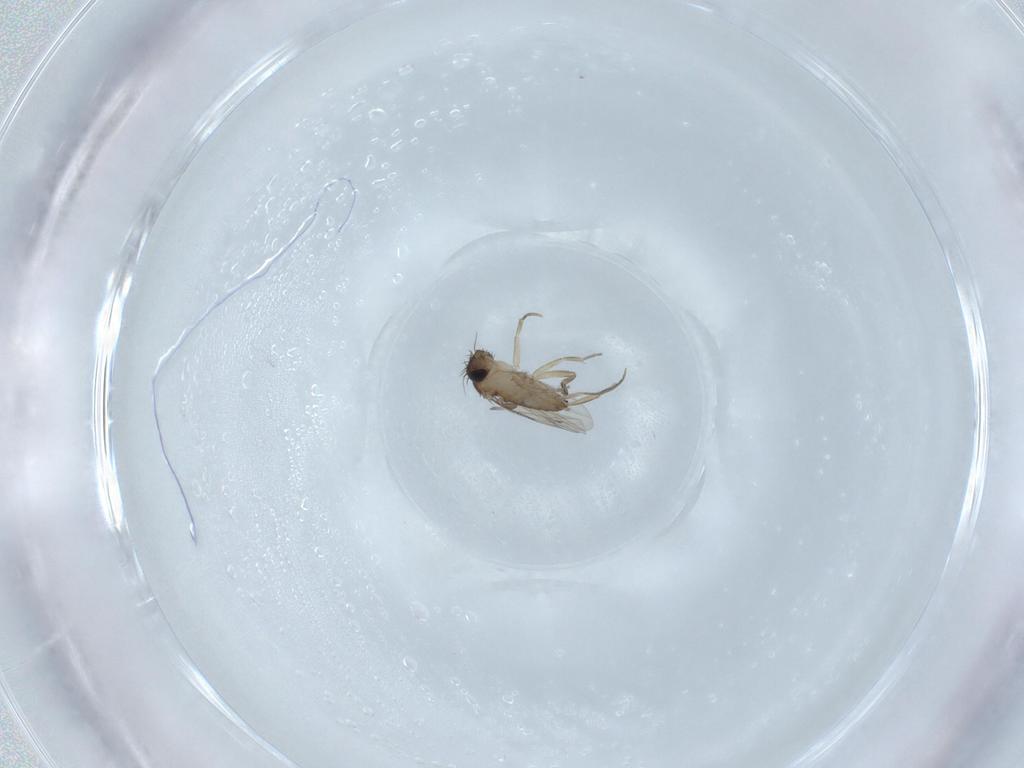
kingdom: Animalia
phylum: Arthropoda
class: Insecta
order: Diptera
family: Phoridae
